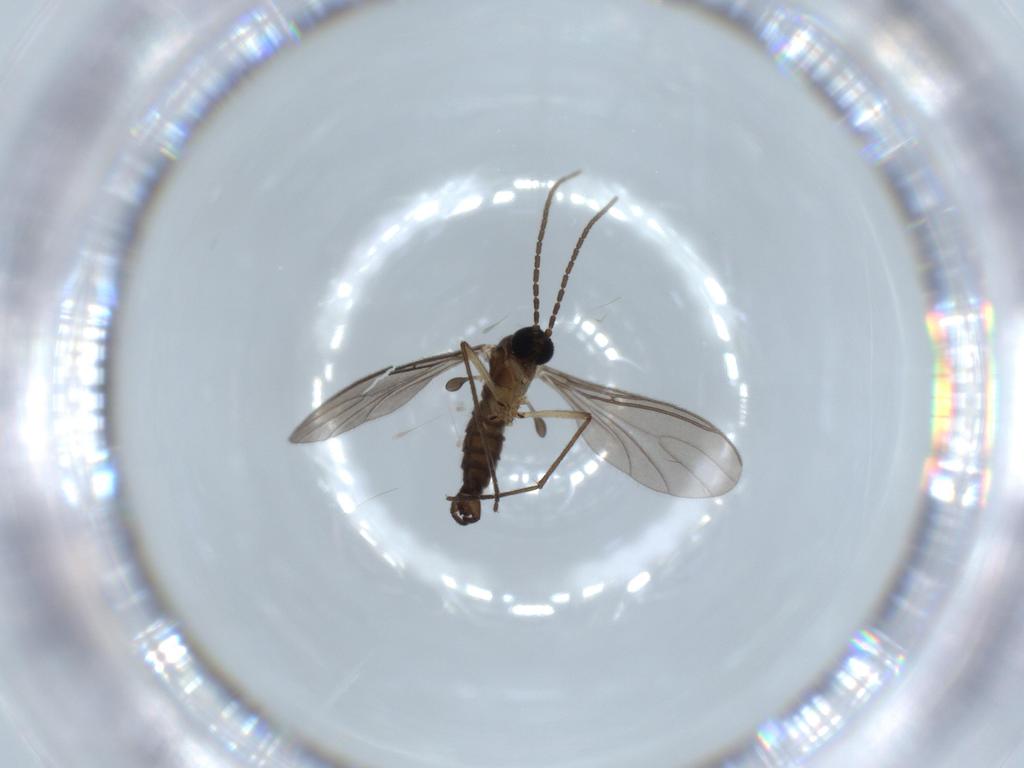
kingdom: Animalia
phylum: Arthropoda
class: Insecta
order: Diptera
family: Sciaridae
